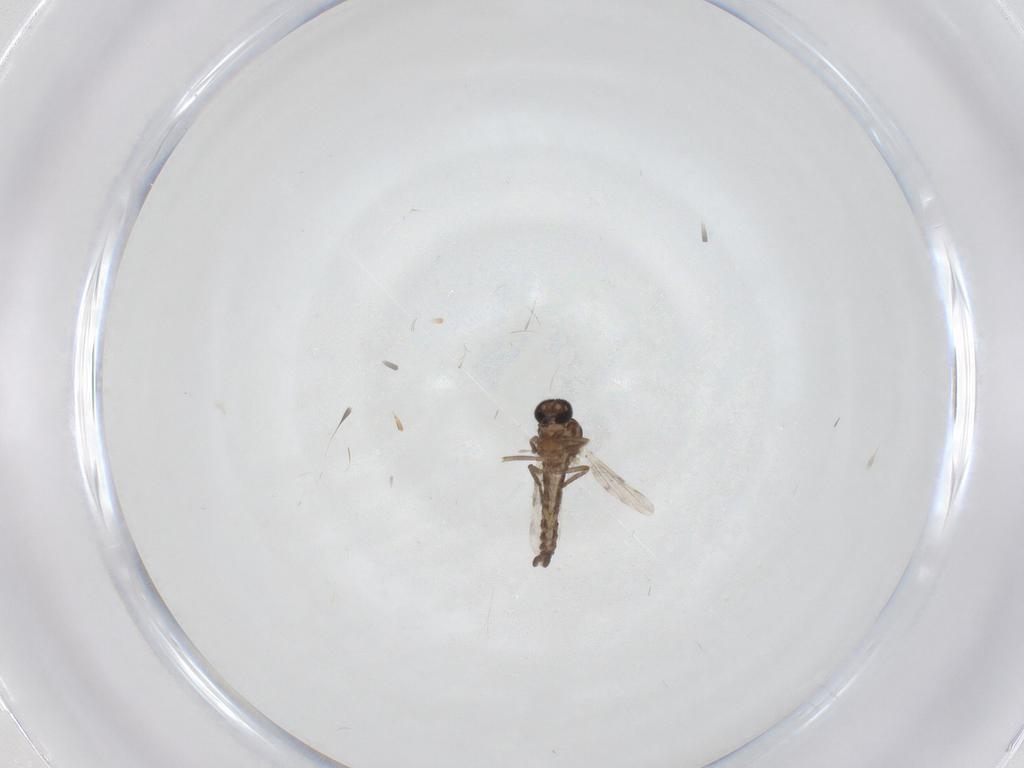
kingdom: Animalia
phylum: Arthropoda
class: Insecta
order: Diptera
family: Ceratopogonidae
